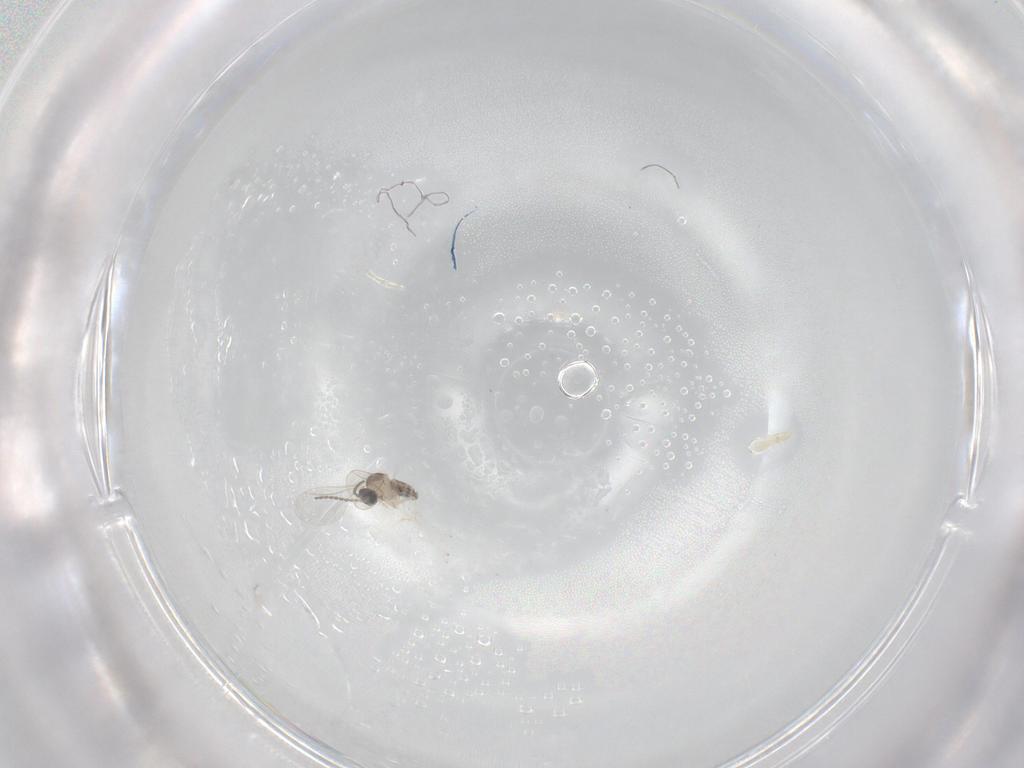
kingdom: Animalia
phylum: Arthropoda
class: Insecta
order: Diptera
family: Cecidomyiidae
